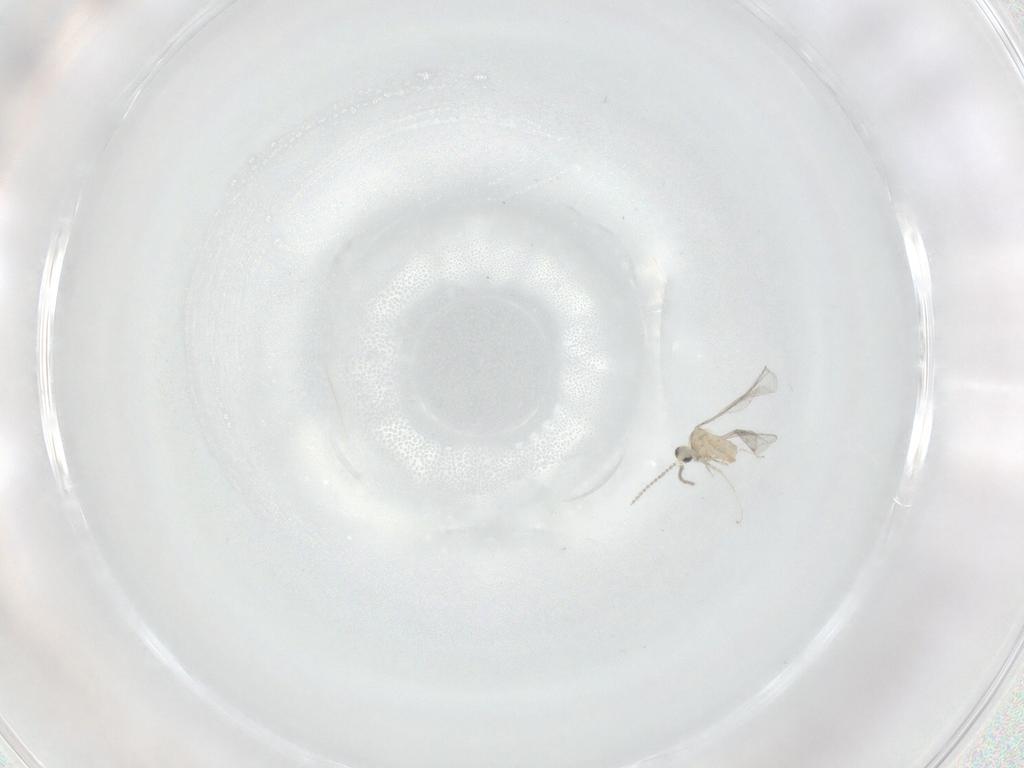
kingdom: Animalia
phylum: Arthropoda
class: Insecta
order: Diptera
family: Cecidomyiidae
